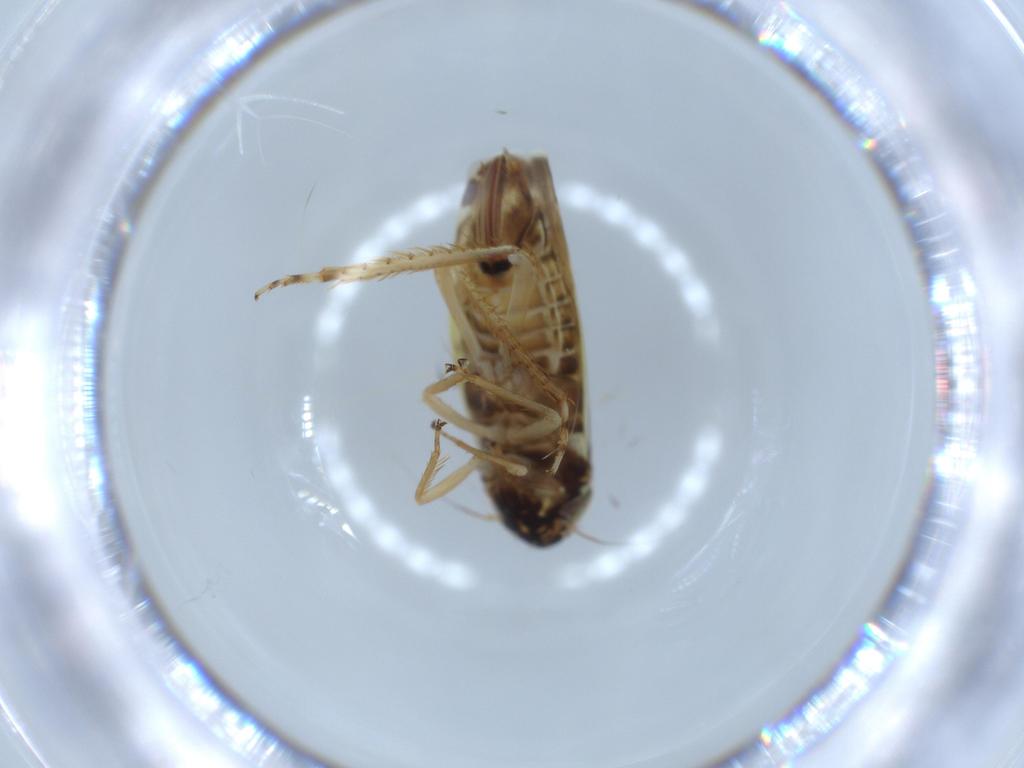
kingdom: Animalia
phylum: Arthropoda
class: Insecta
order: Hemiptera
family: Cicadellidae
